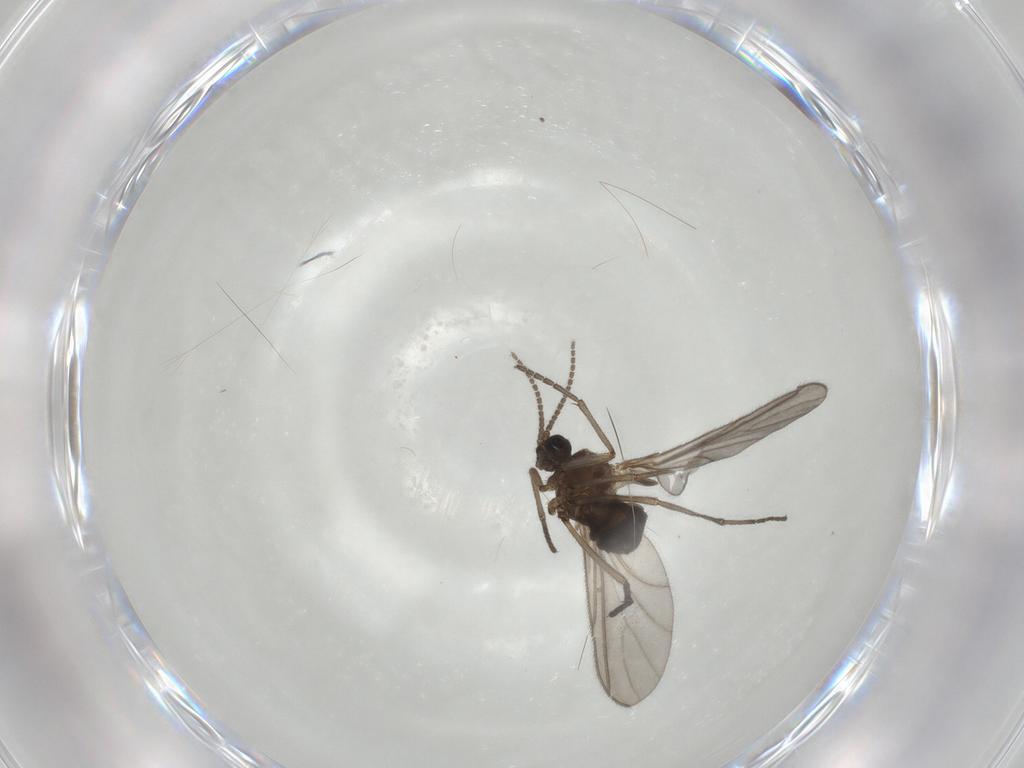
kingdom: Animalia
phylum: Arthropoda
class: Insecta
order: Diptera
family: Sciaridae
